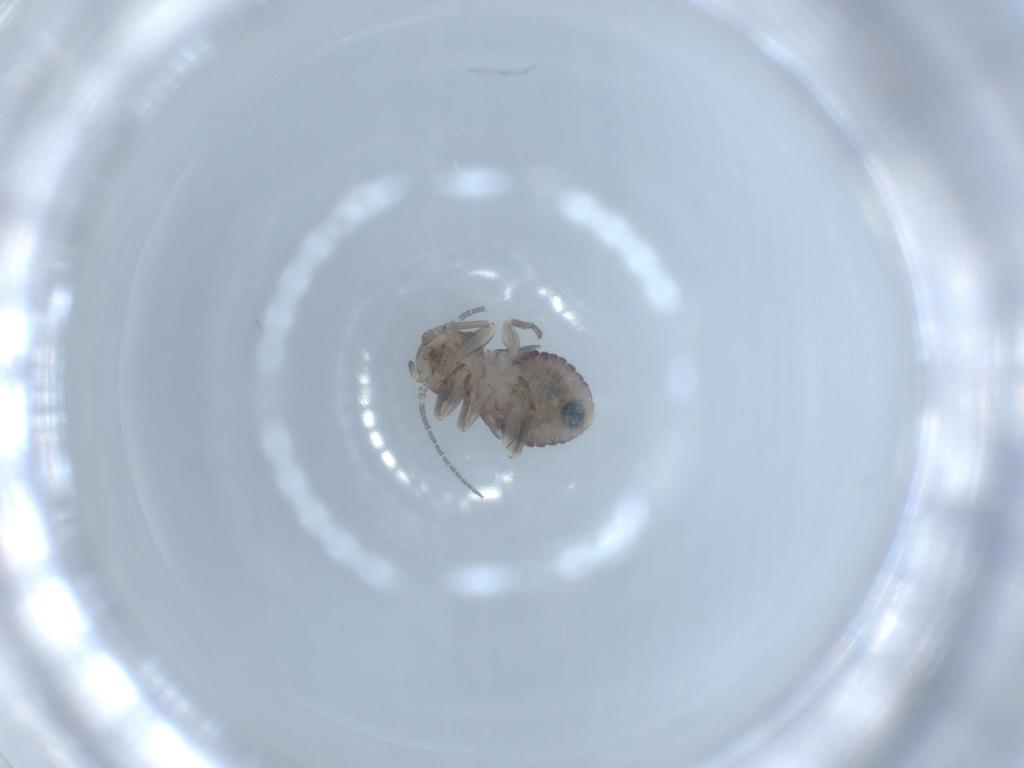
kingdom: Animalia
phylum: Arthropoda
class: Insecta
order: Psocodea
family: Myopsocidae
